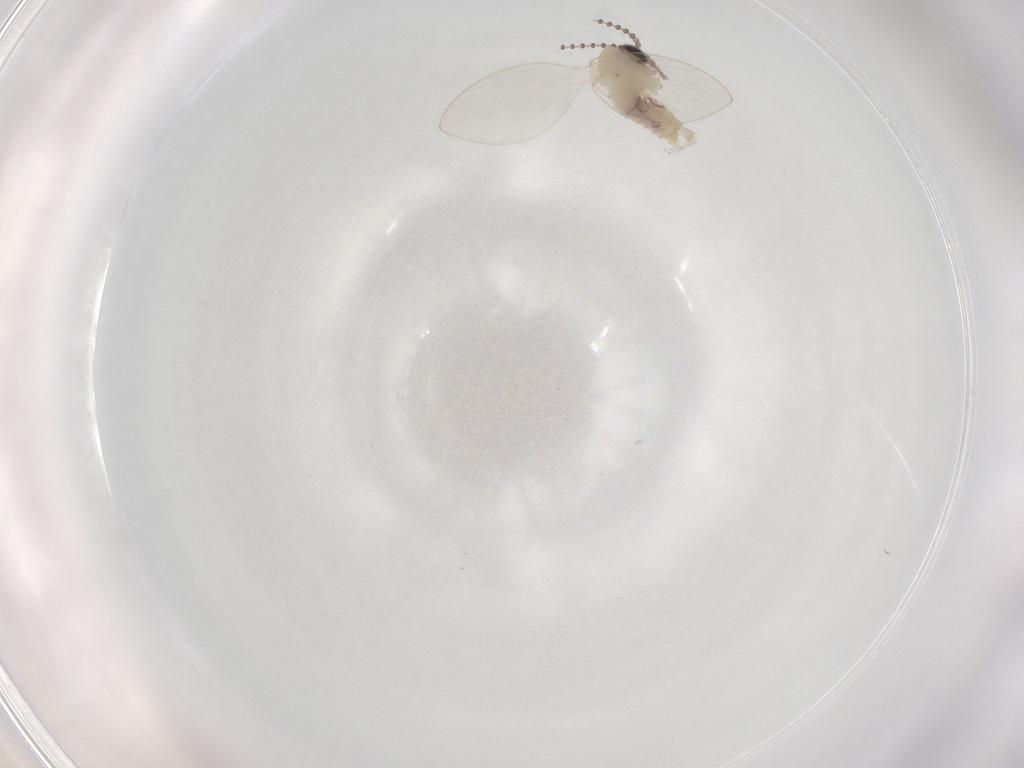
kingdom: Animalia
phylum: Arthropoda
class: Insecta
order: Diptera
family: Psychodidae
